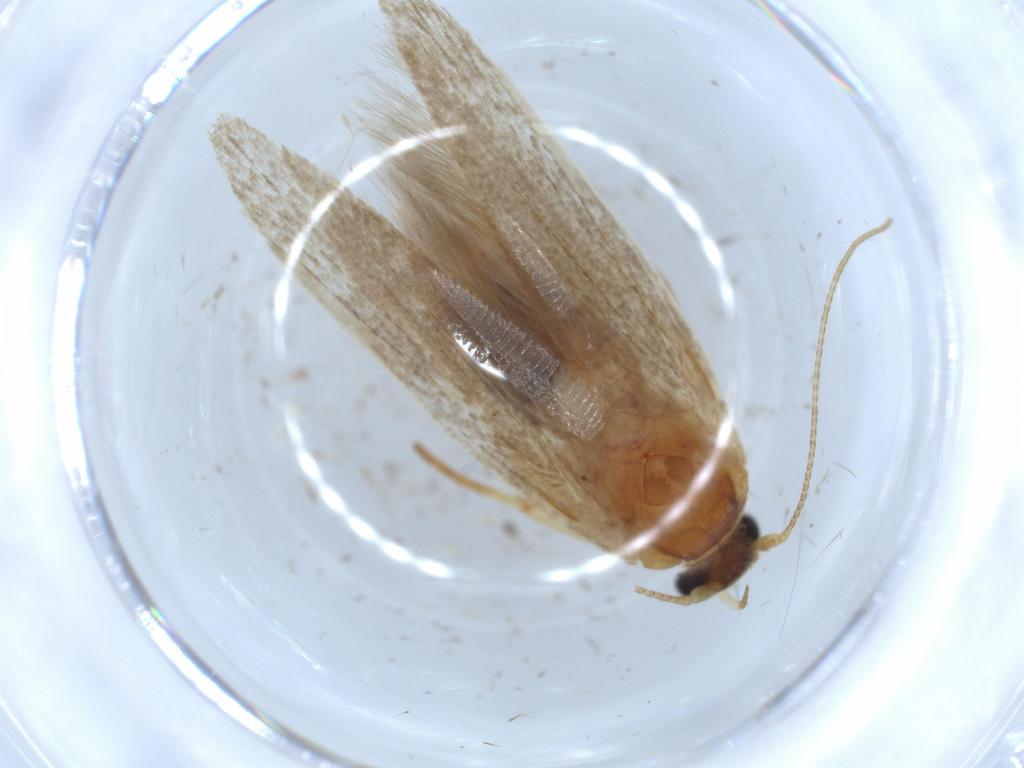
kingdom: Animalia
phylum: Arthropoda
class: Insecta
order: Lepidoptera
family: Blastobasidae
